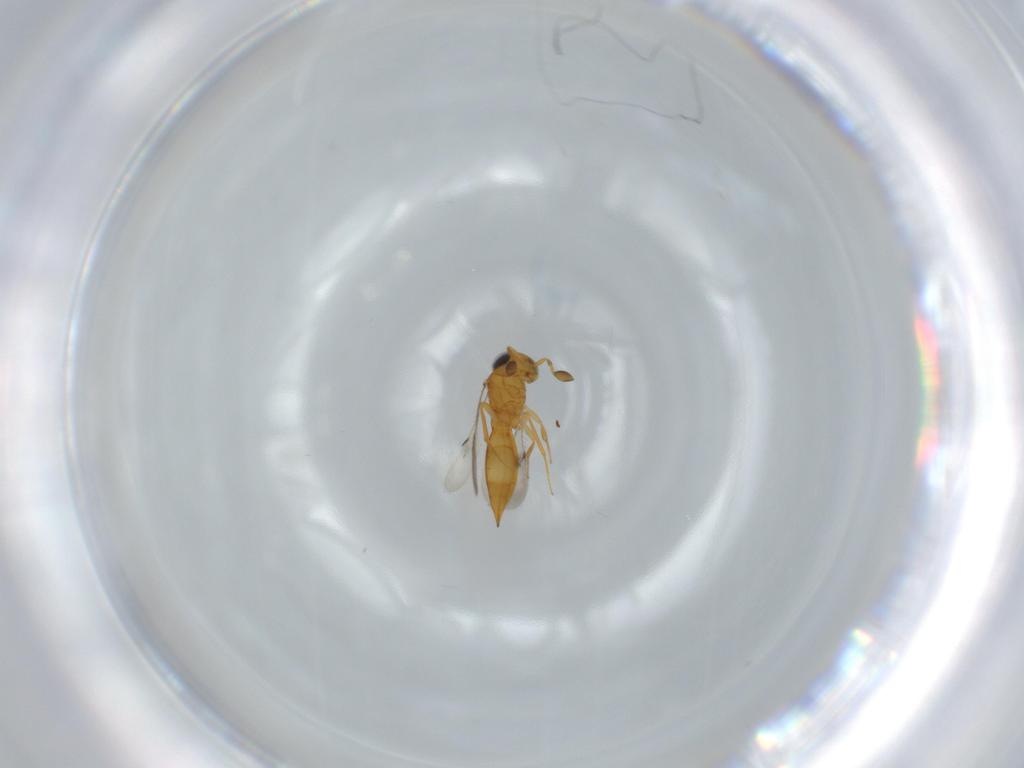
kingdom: Animalia
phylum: Arthropoda
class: Insecta
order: Hymenoptera
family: Scelionidae
